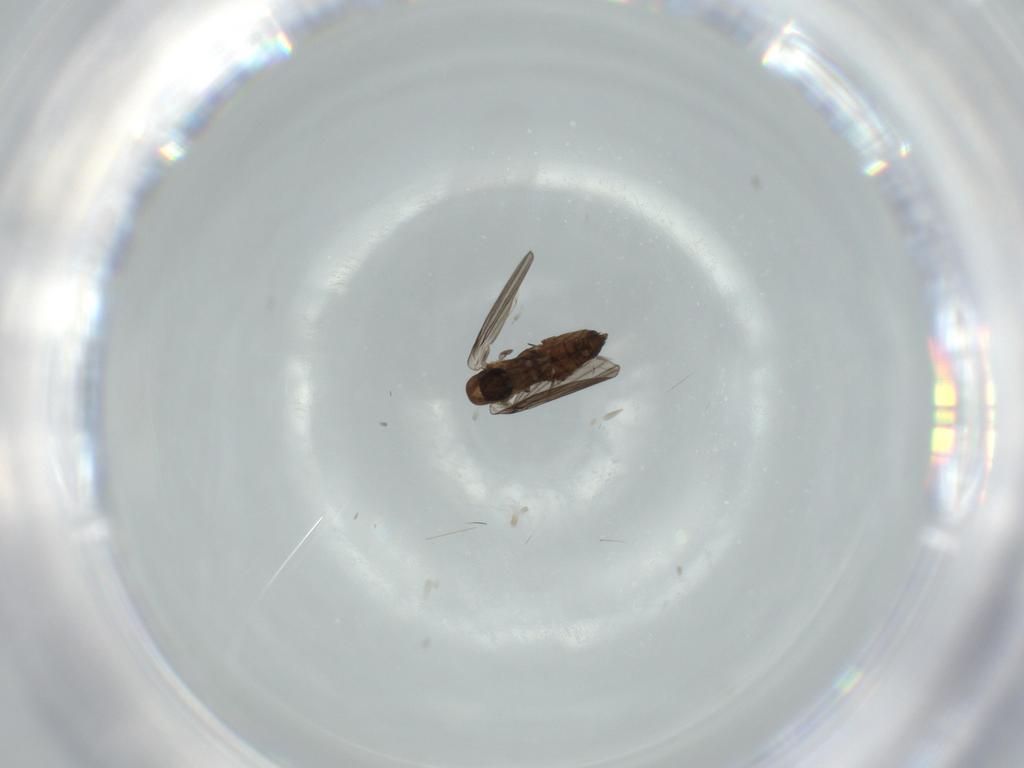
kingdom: Animalia
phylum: Arthropoda
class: Insecta
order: Diptera
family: Psychodidae
